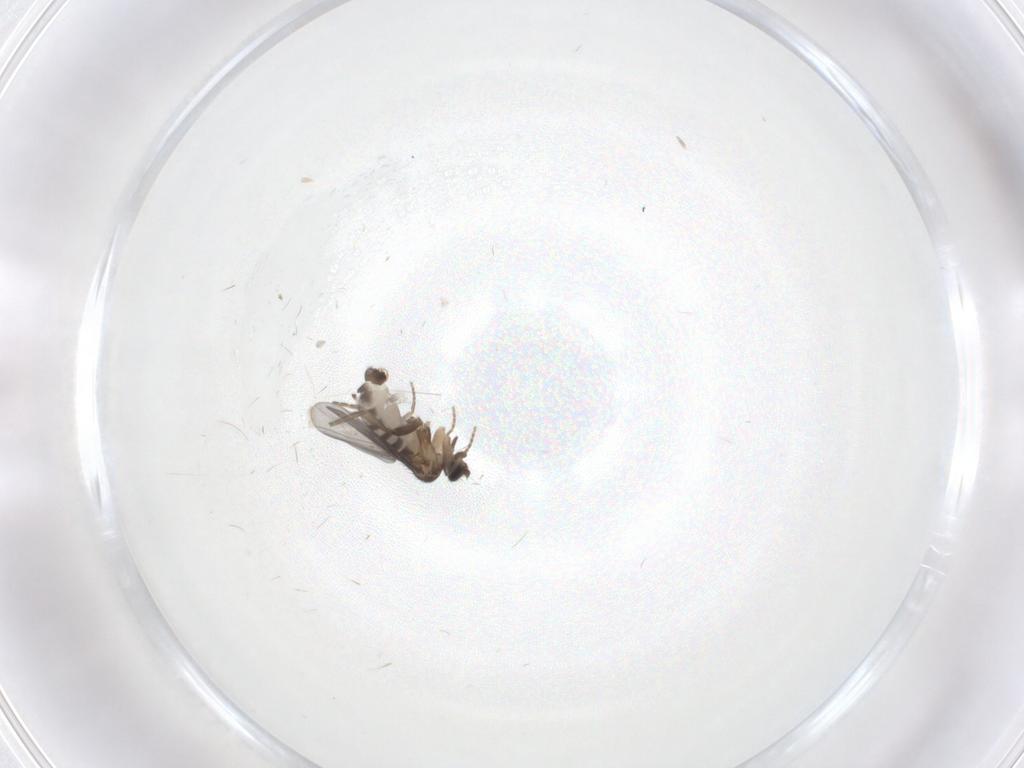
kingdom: Animalia
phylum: Arthropoda
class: Insecta
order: Diptera
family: Chironomidae
